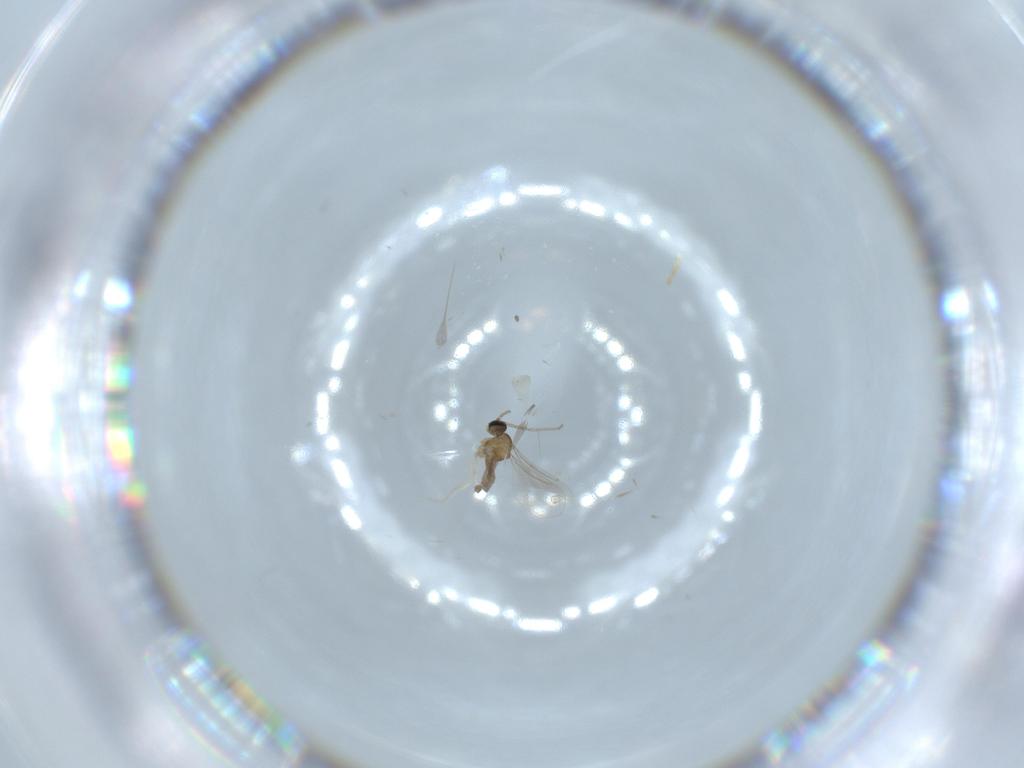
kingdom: Animalia
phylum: Arthropoda
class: Insecta
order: Diptera
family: Cecidomyiidae
